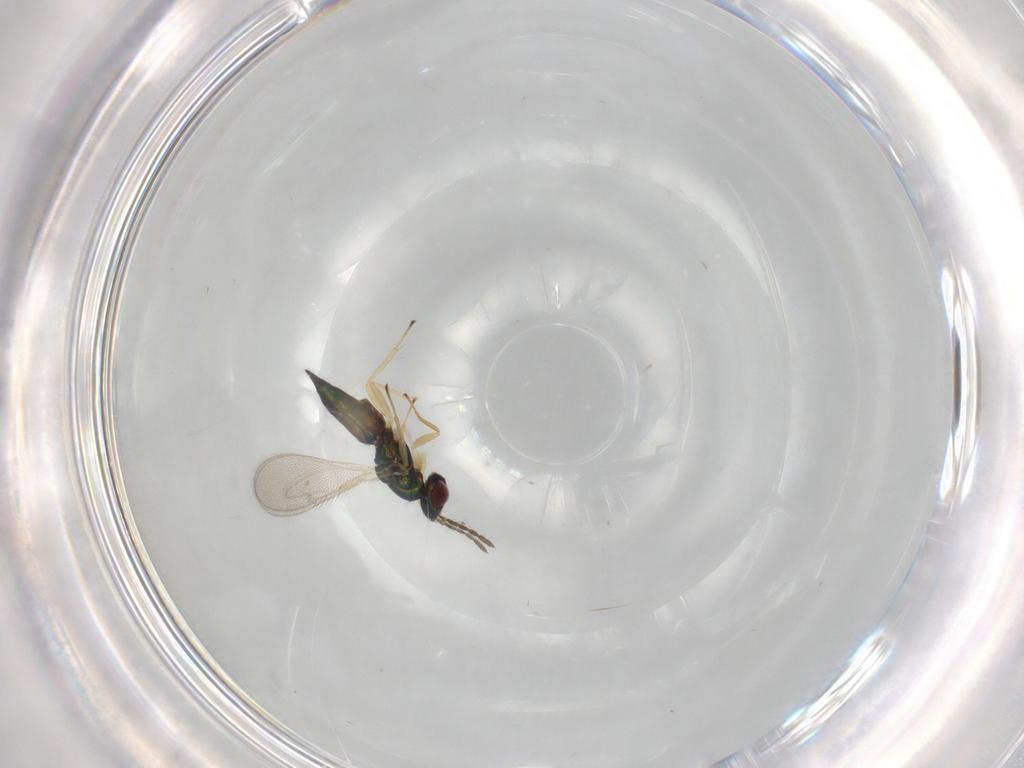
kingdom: Animalia
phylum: Arthropoda
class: Insecta
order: Hymenoptera
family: Eulophidae
